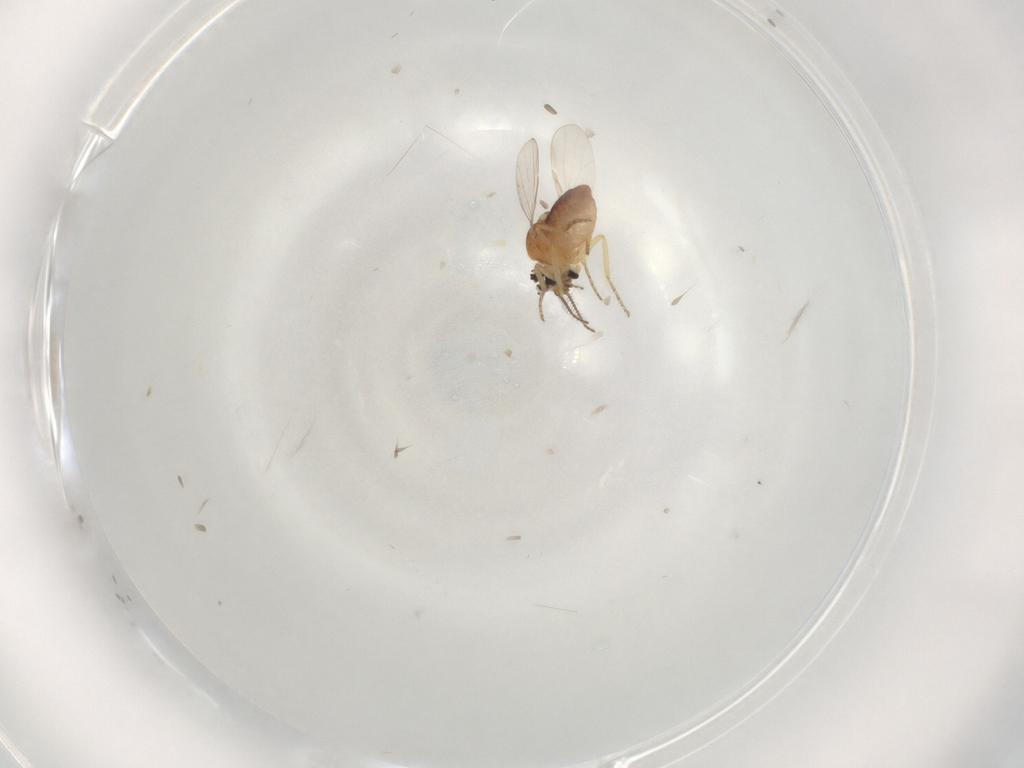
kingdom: Animalia
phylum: Arthropoda
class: Insecta
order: Diptera
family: Ceratopogonidae
